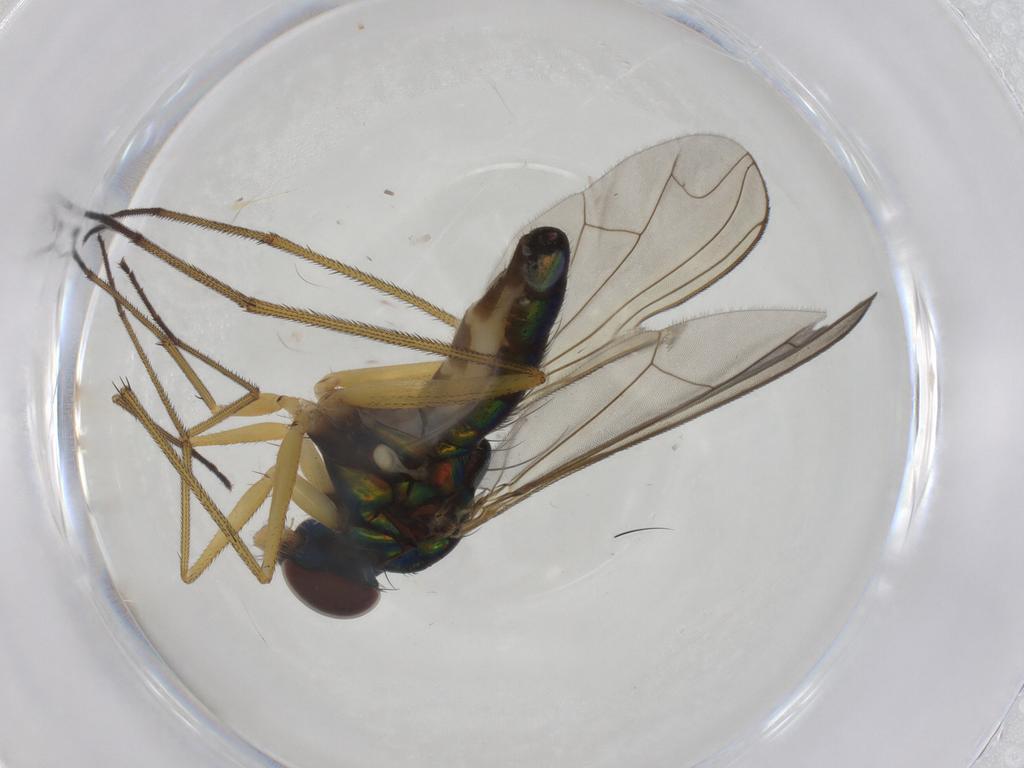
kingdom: Animalia
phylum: Arthropoda
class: Insecta
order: Diptera
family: Dolichopodidae
